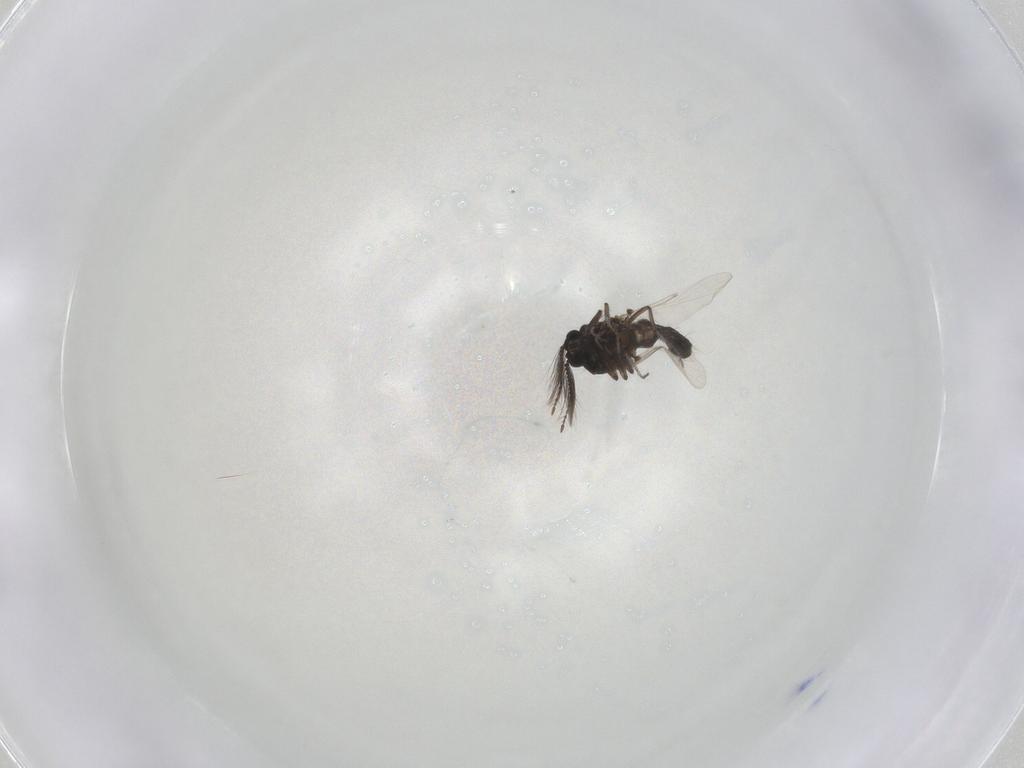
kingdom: Animalia
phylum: Arthropoda
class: Insecta
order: Diptera
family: Ceratopogonidae
